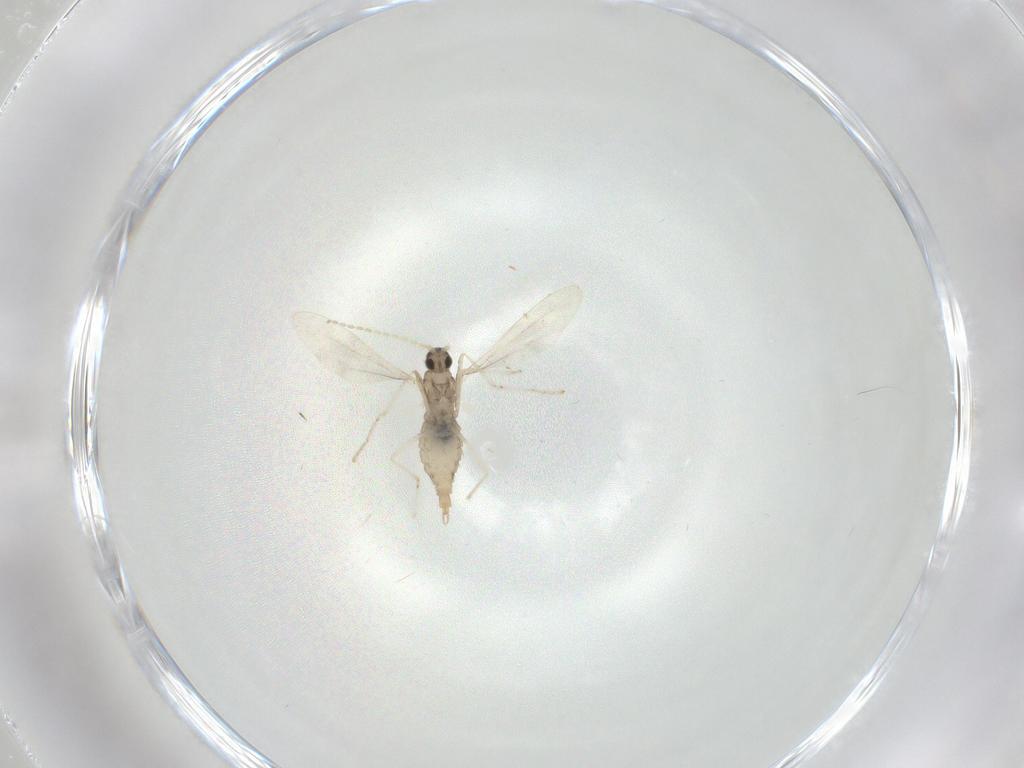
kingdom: Animalia
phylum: Arthropoda
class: Insecta
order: Diptera
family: Cecidomyiidae
